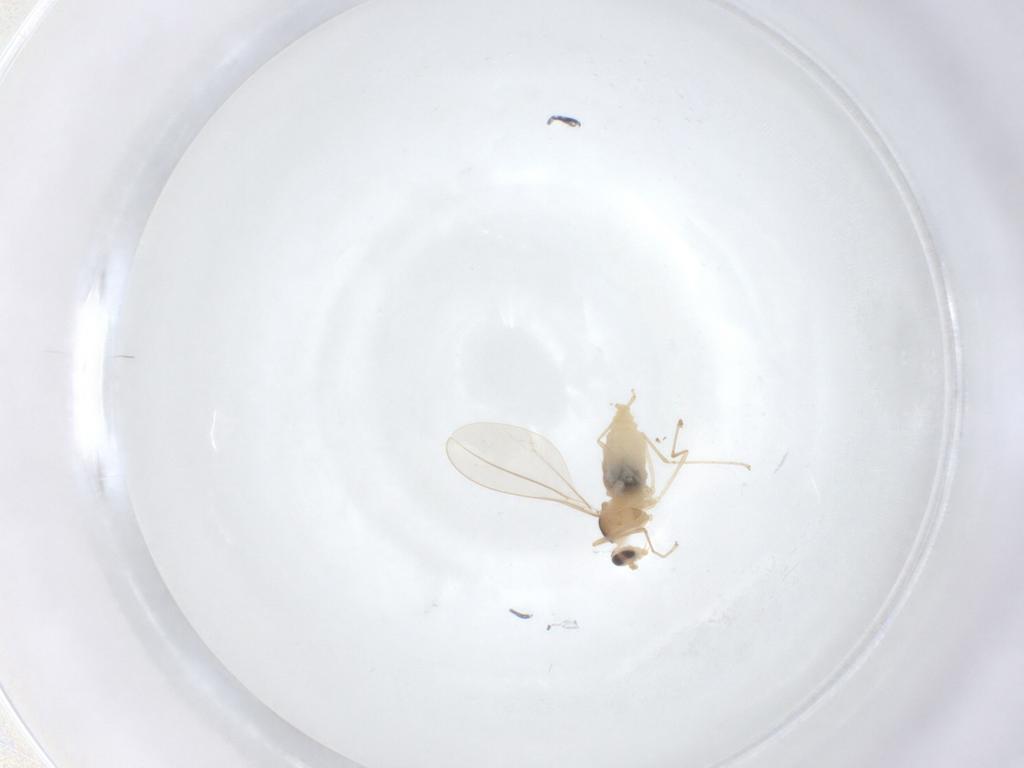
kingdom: Animalia
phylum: Arthropoda
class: Insecta
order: Diptera
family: Cecidomyiidae
